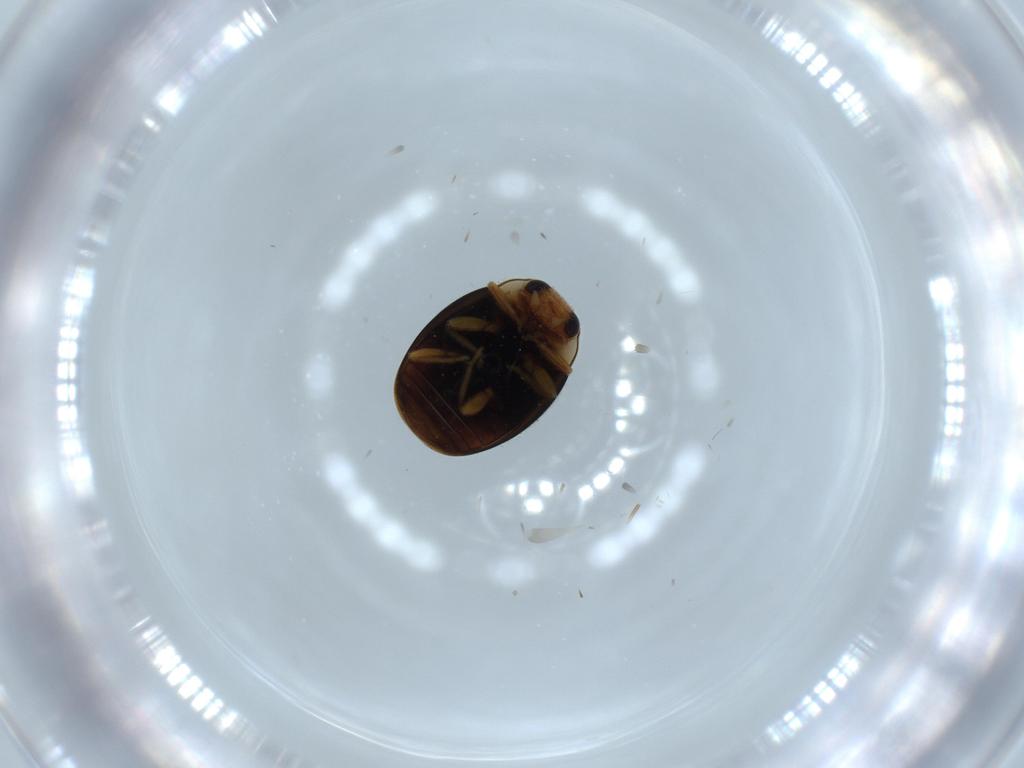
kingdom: Animalia
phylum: Arthropoda
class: Insecta
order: Coleoptera
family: Coccinellidae
